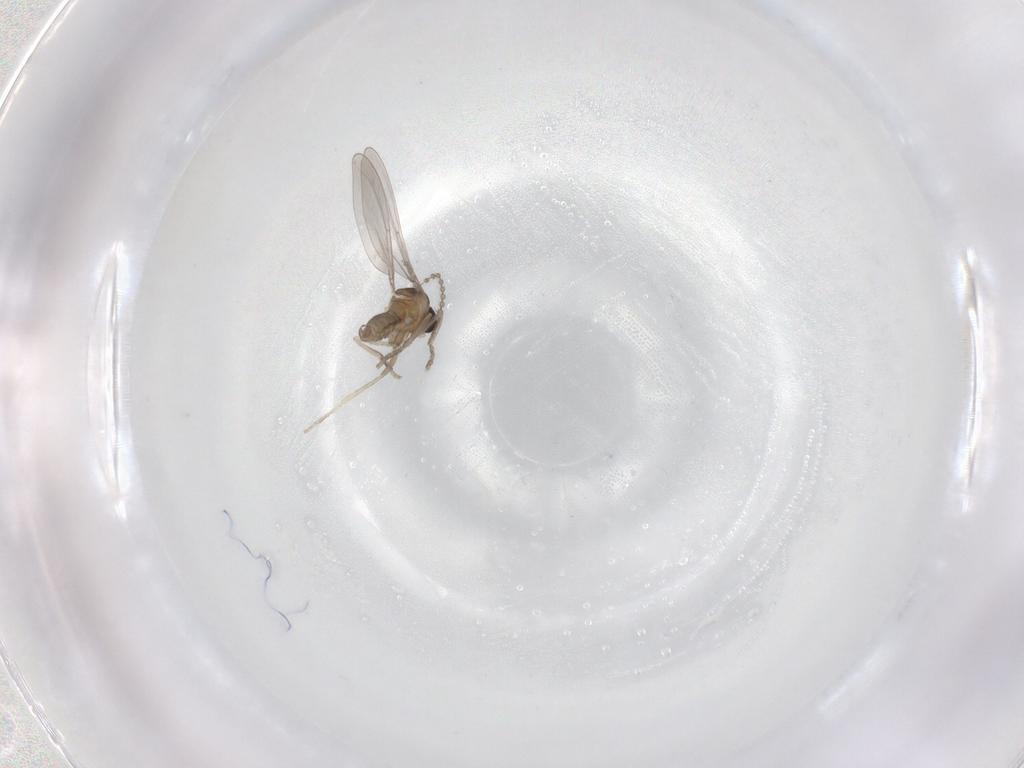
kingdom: Animalia
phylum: Arthropoda
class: Insecta
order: Diptera
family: Cecidomyiidae
